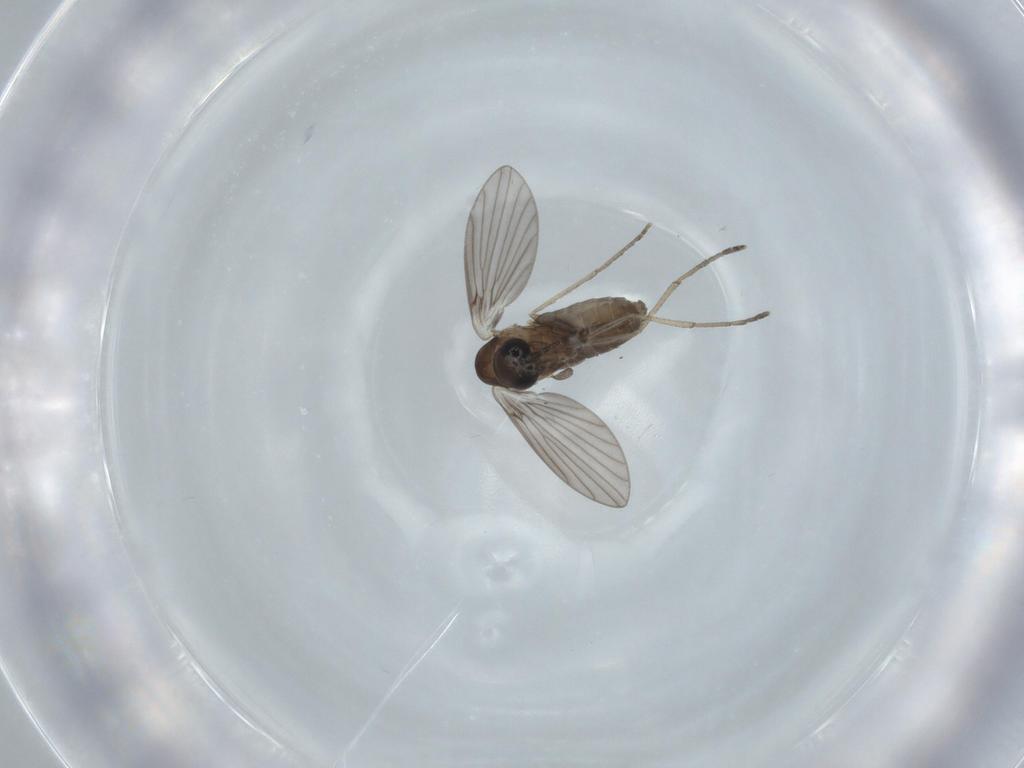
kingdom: Animalia
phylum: Arthropoda
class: Insecta
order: Diptera
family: Psychodidae
